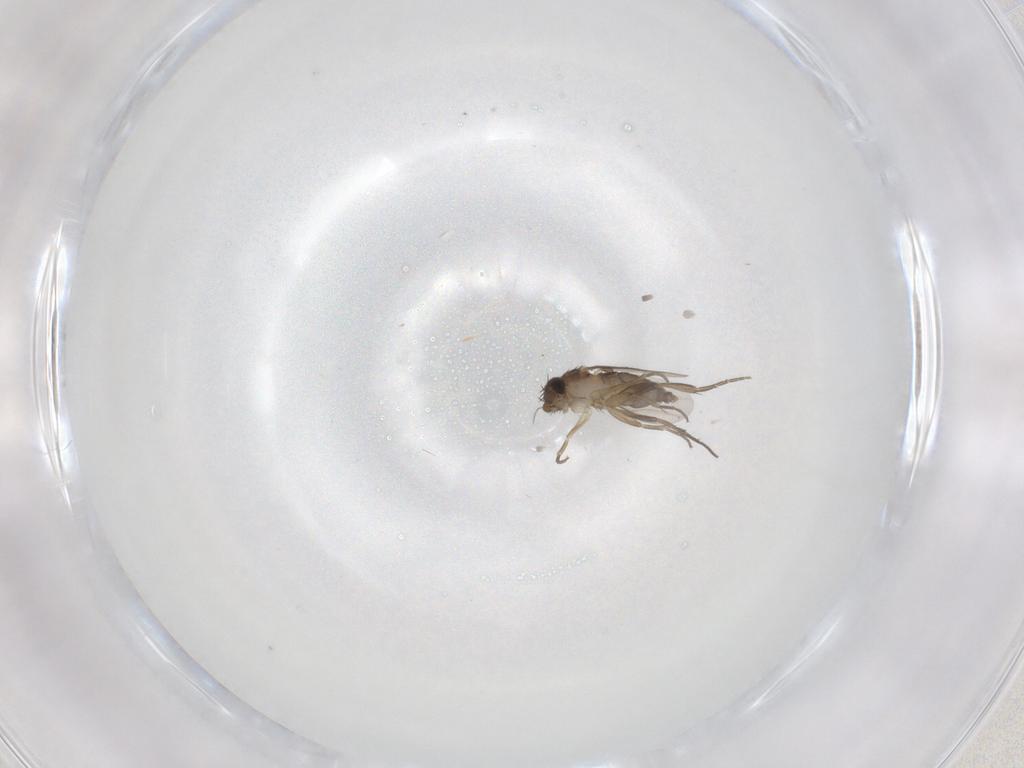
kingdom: Animalia
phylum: Arthropoda
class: Insecta
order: Diptera
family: Phoridae
